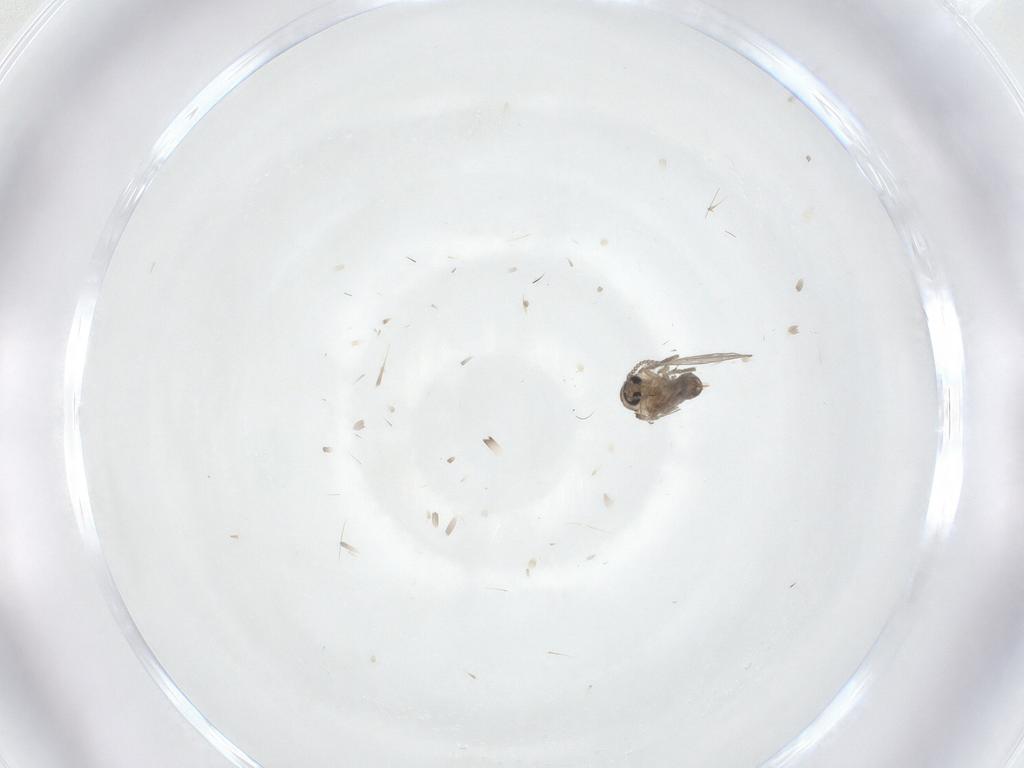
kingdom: Animalia
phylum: Arthropoda
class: Insecta
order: Diptera
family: Psychodidae
